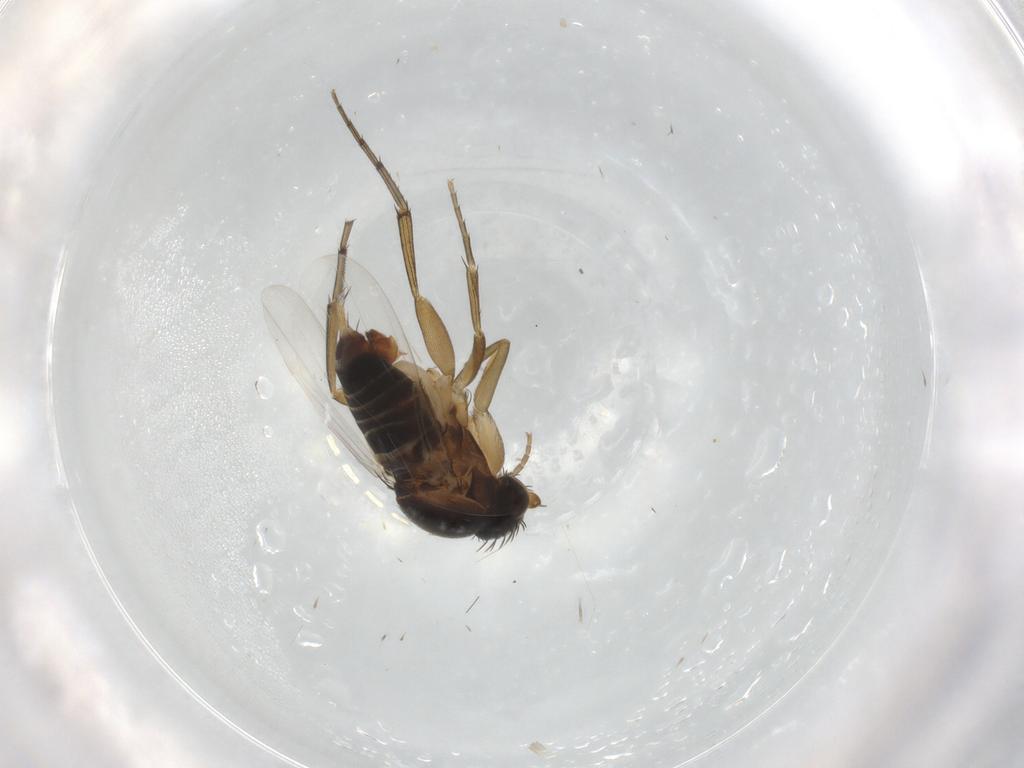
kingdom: Animalia
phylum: Arthropoda
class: Insecta
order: Diptera
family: Phoridae
